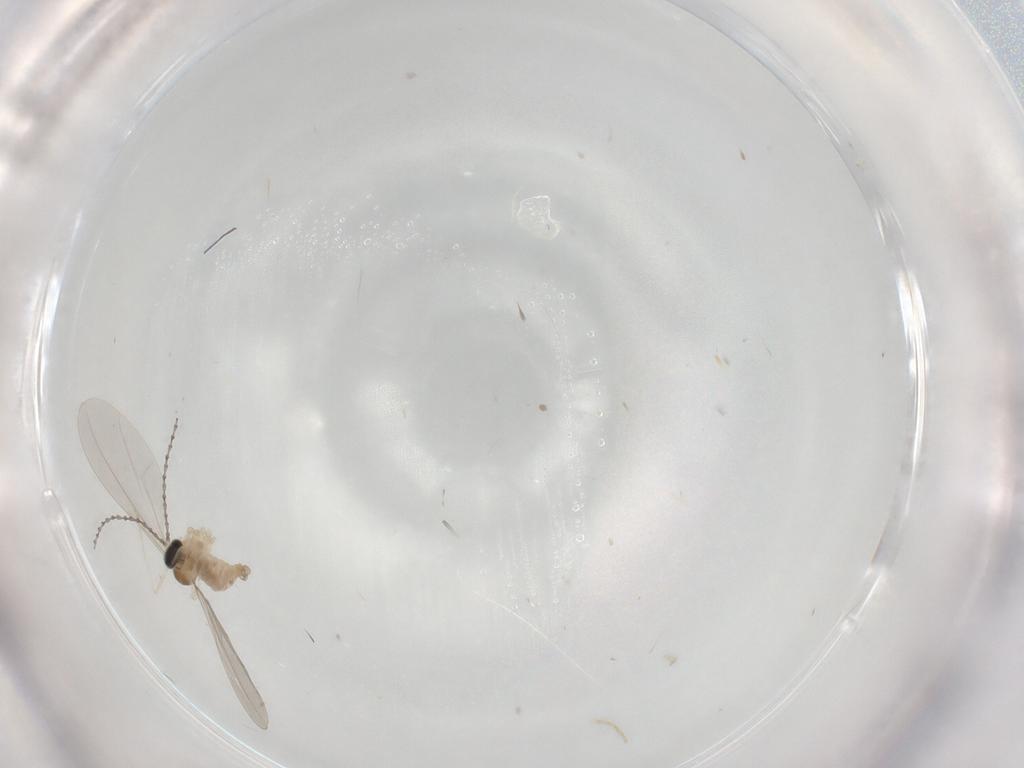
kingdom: Animalia
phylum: Arthropoda
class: Insecta
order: Diptera
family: Cecidomyiidae
